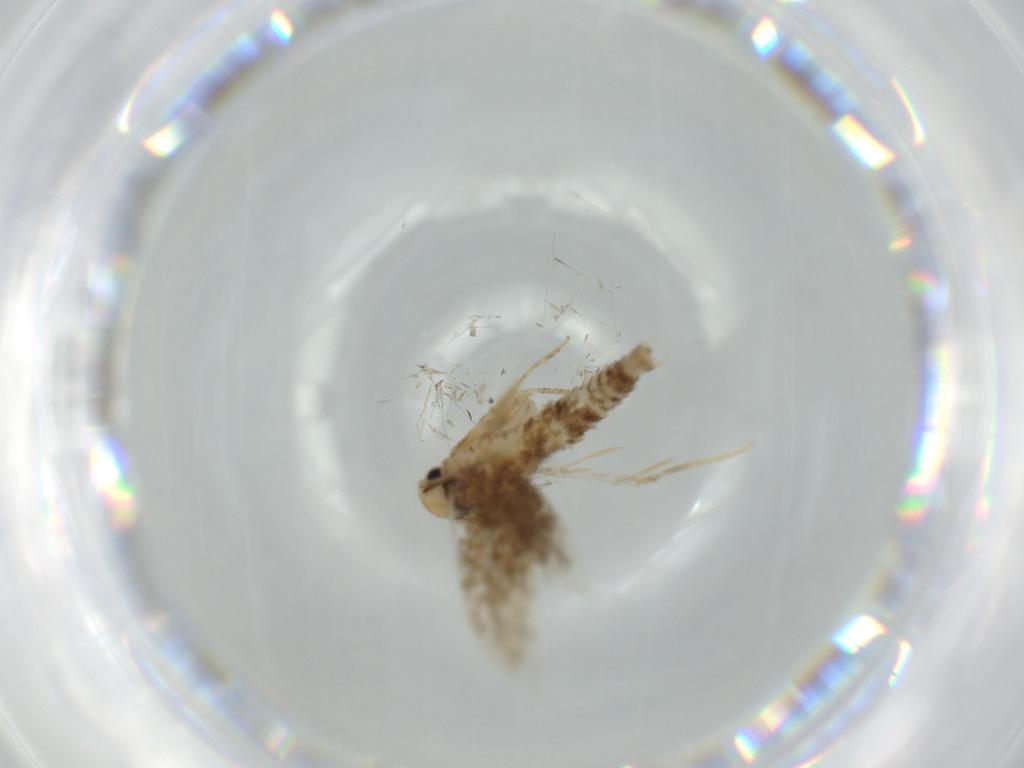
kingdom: Animalia
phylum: Arthropoda
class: Insecta
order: Lepidoptera
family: Tineidae
